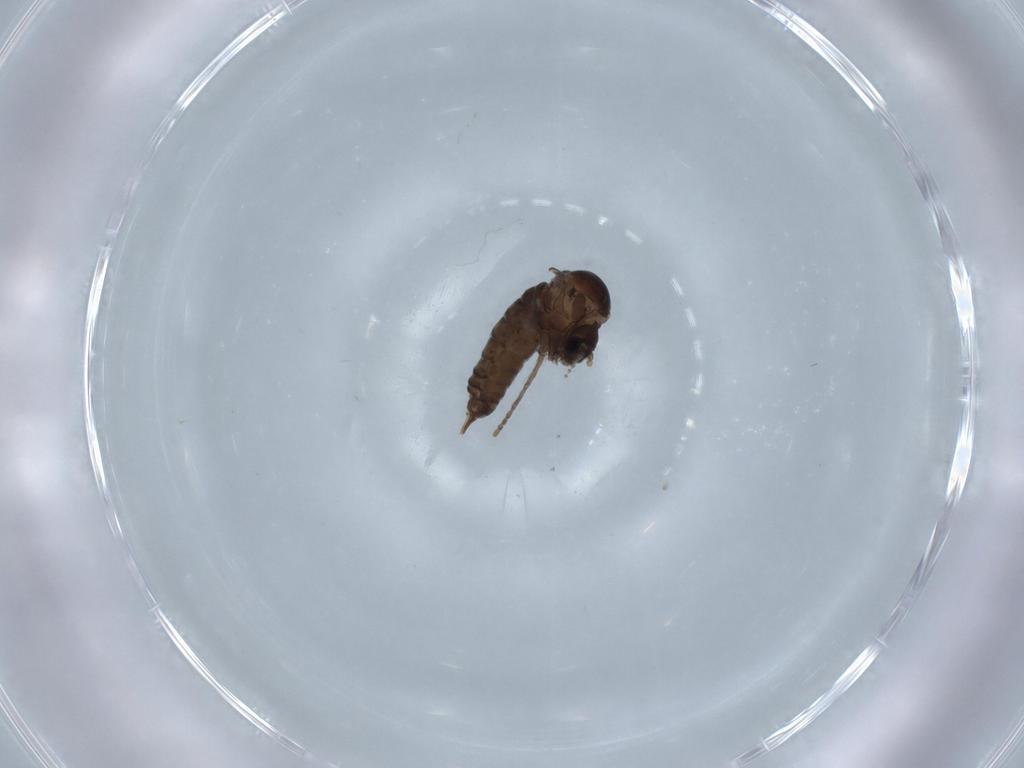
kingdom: Animalia
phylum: Arthropoda
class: Insecta
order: Diptera
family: Psychodidae
